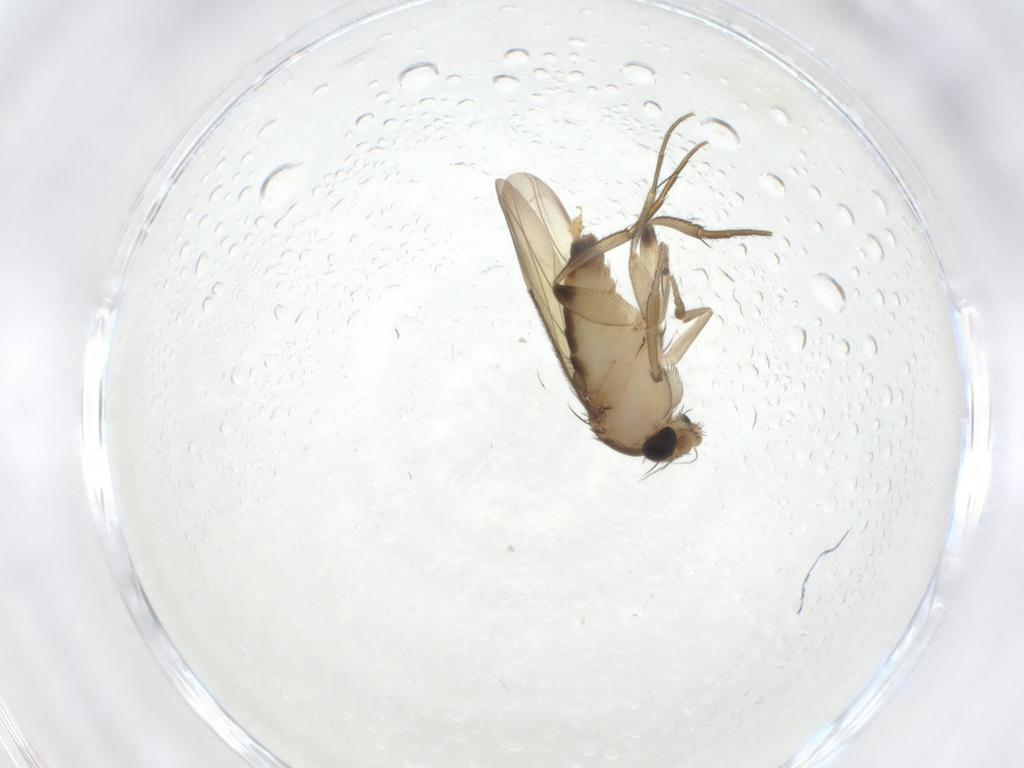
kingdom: Animalia
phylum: Arthropoda
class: Insecta
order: Diptera
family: Phoridae
